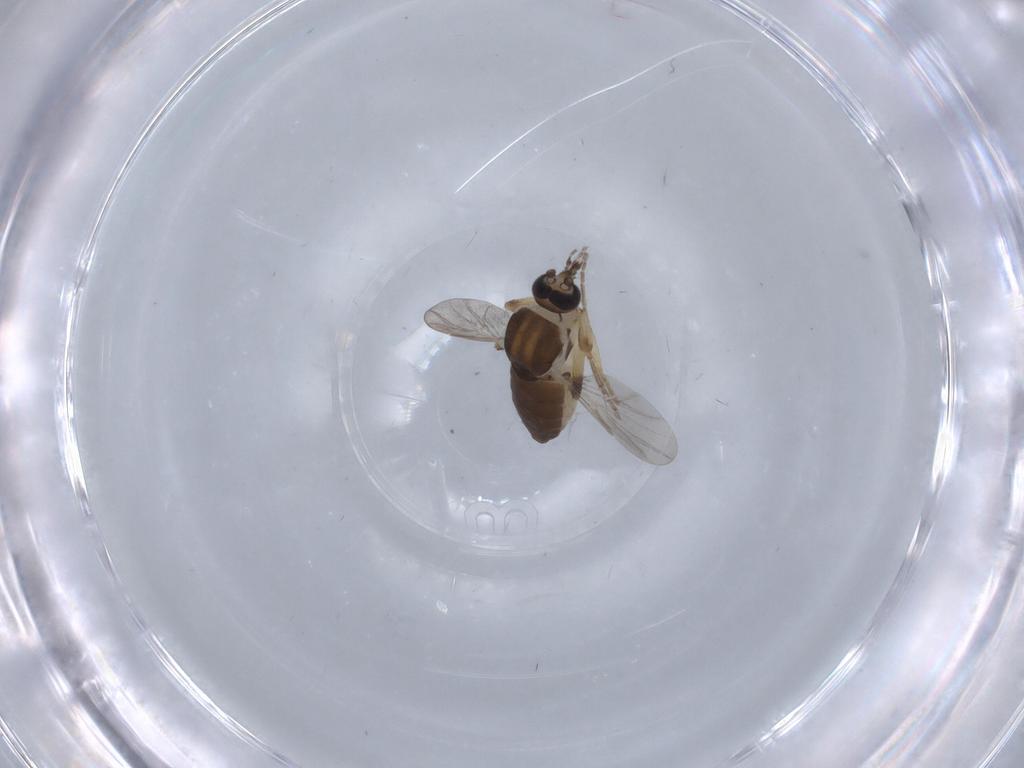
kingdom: Animalia
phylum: Arthropoda
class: Insecta
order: Diptera
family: Ceratopogonidae
